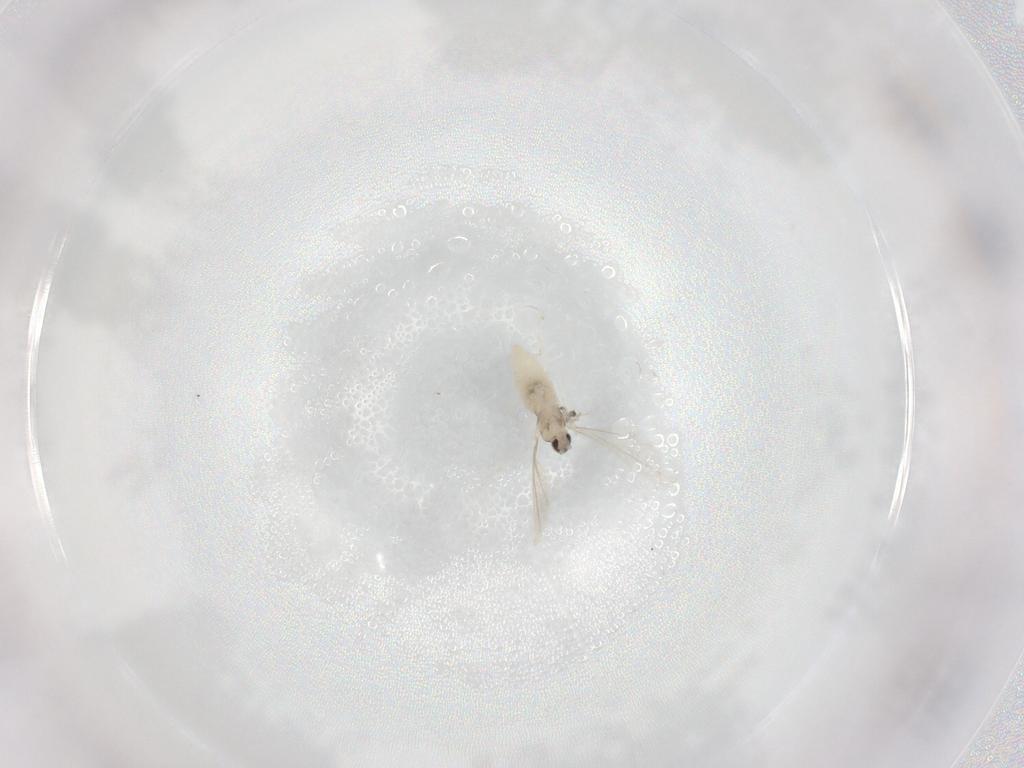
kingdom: Animalia
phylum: Arthropoda
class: Insecta
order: Diptera
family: Cecidomyiidae
